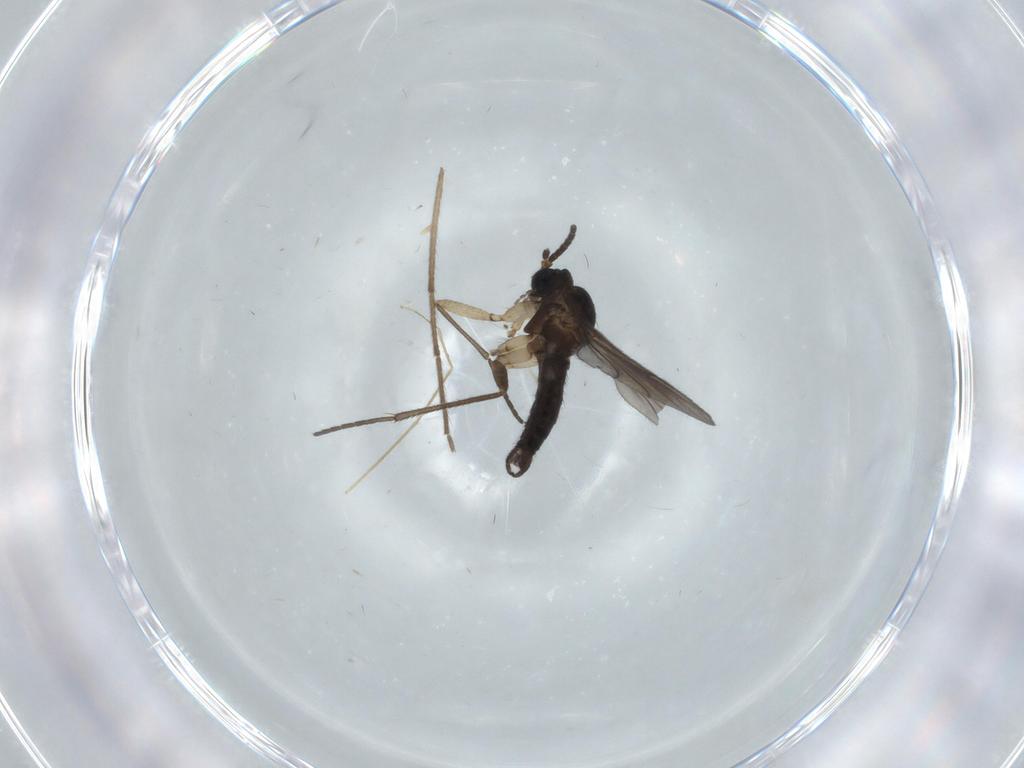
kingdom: Animalia
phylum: Arthropoda
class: Insecta
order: Diptera
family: Sciaridae
